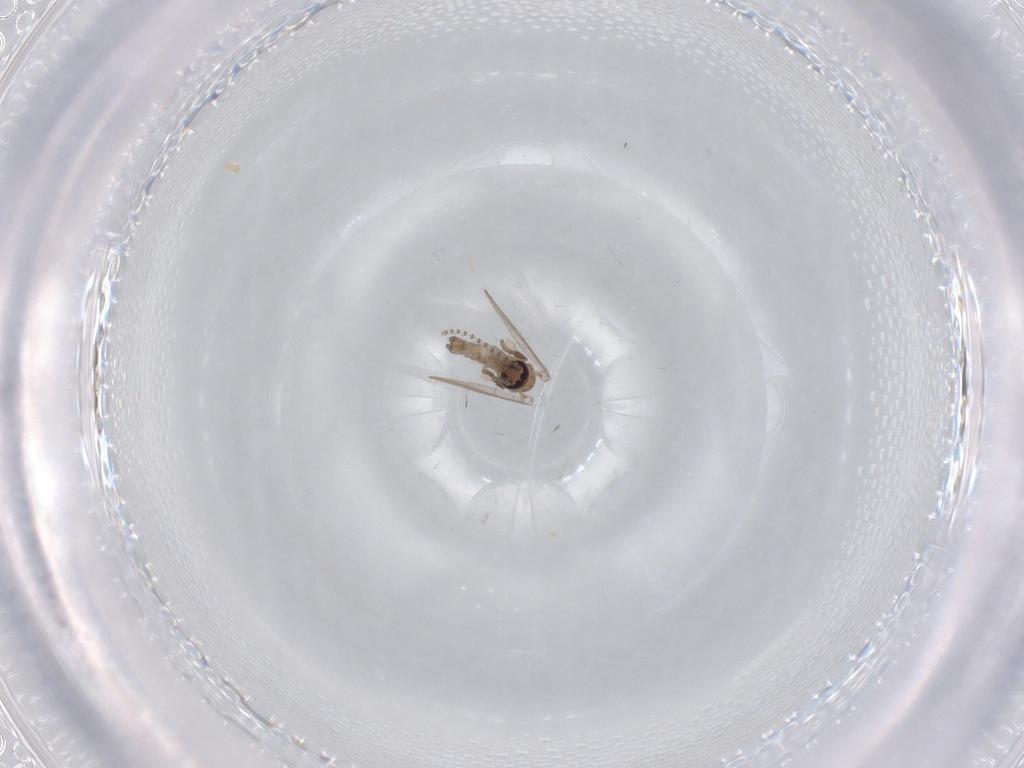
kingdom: Animalia
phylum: Arthropoda
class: Insecta
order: Diptera
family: Psychodidae
